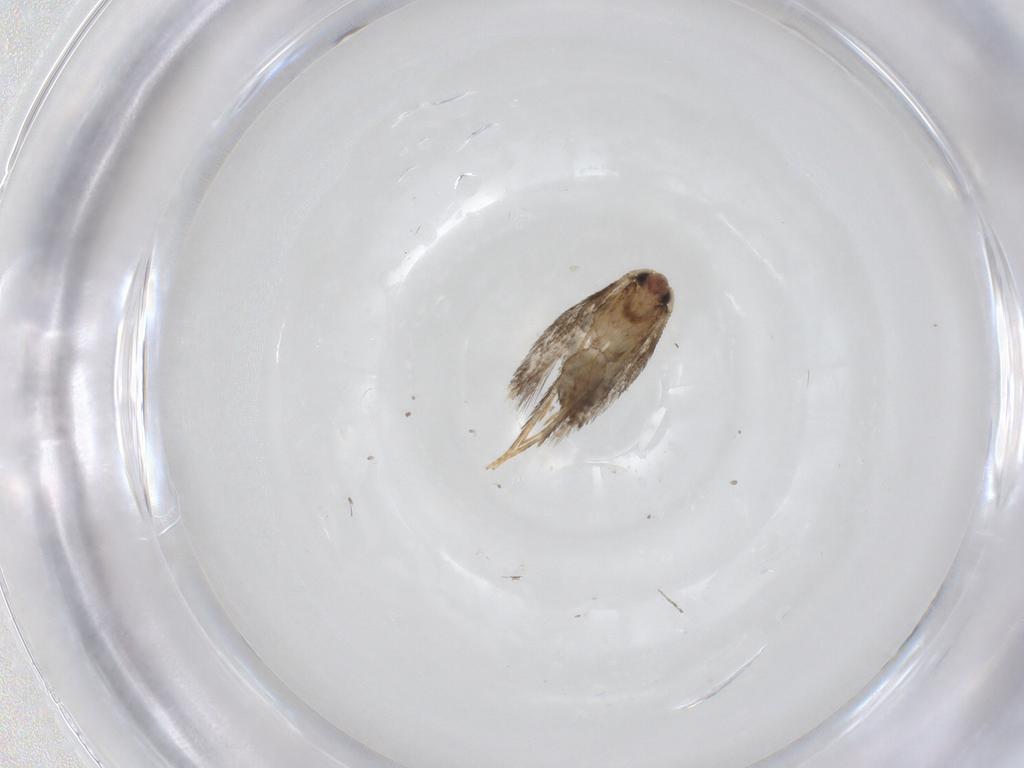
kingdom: Animalia
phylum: Arthropoda
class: Insecta
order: Lepidoptera
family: Nepticulidae
